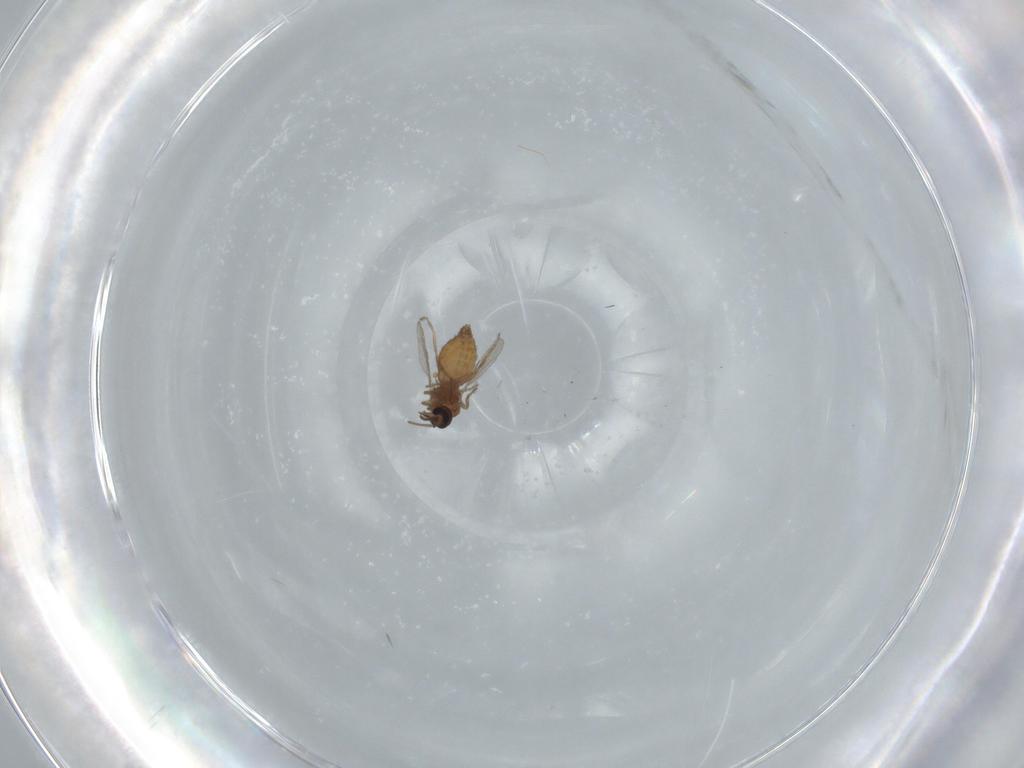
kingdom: Animalia
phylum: Arthropoda
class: Insecta
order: Diptera
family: Ceratopogonidae
